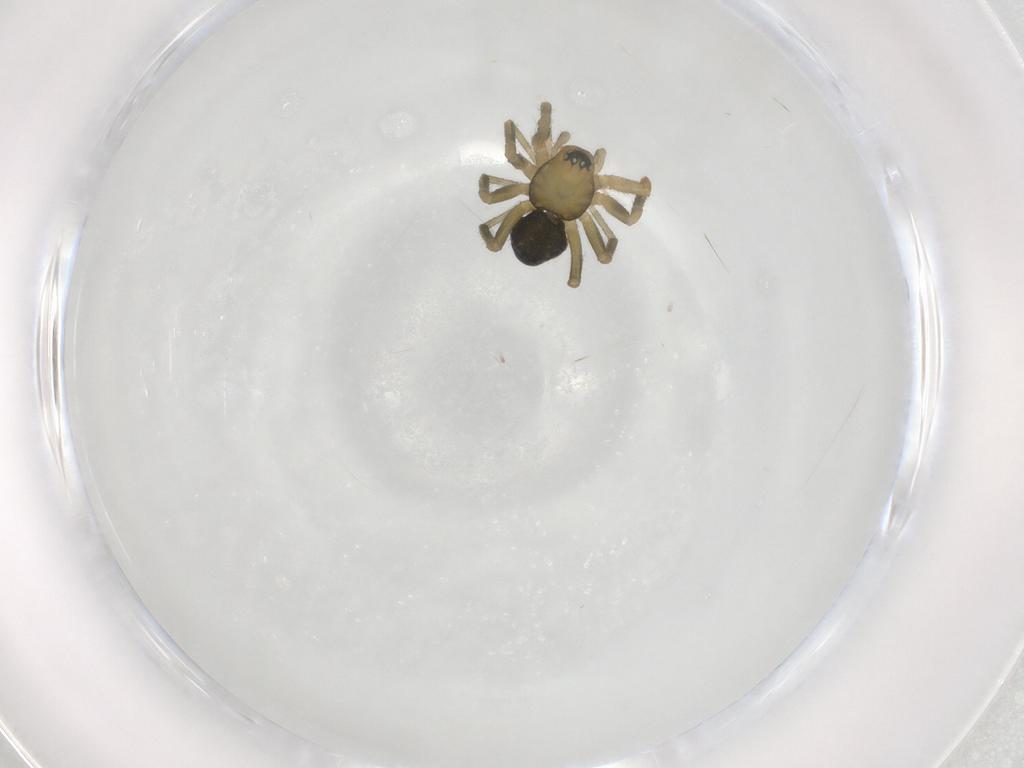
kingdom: Animalia
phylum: Arthropoda
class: Arachnida
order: Araneae
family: Linyphiidae
